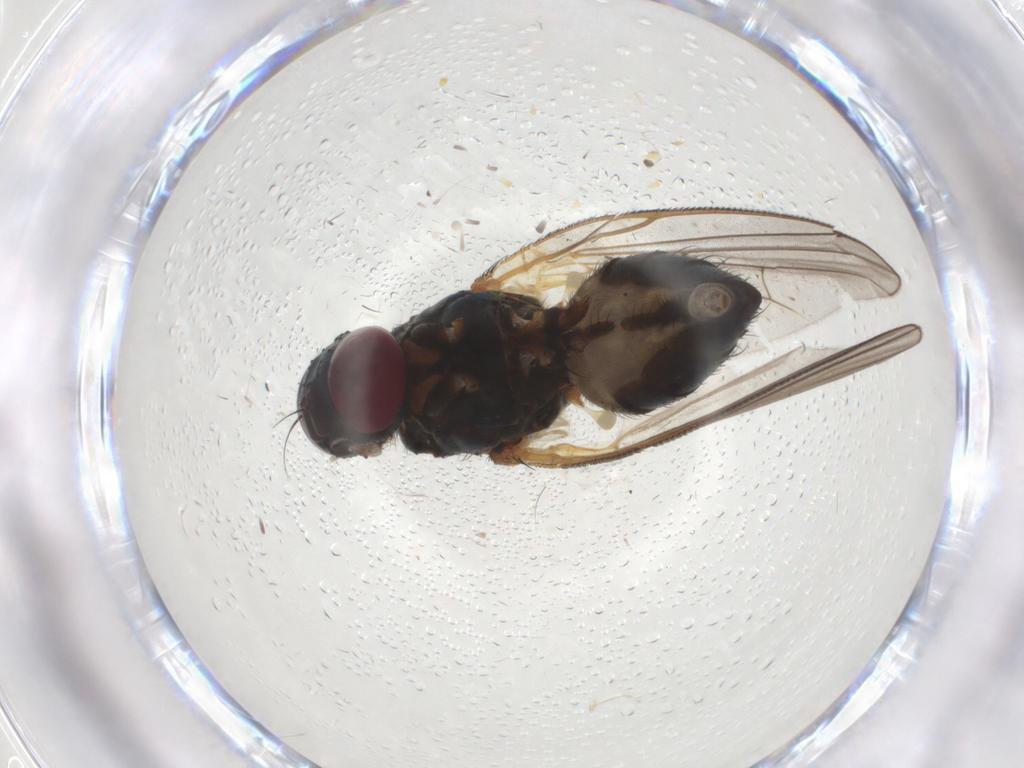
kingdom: Animalia
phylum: Arthropoda
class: Insecta
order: Diptera
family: Fanniidae
